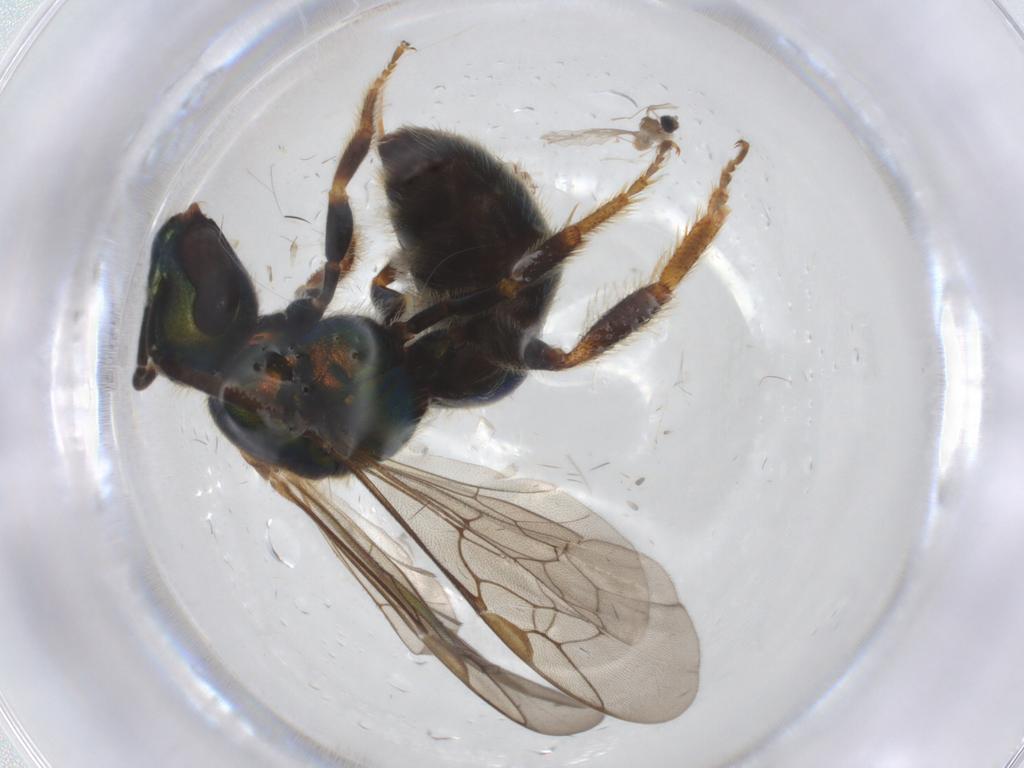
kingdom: Animalia
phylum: Arthropoda
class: Insecta
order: Hymenoptera
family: Halictidae
